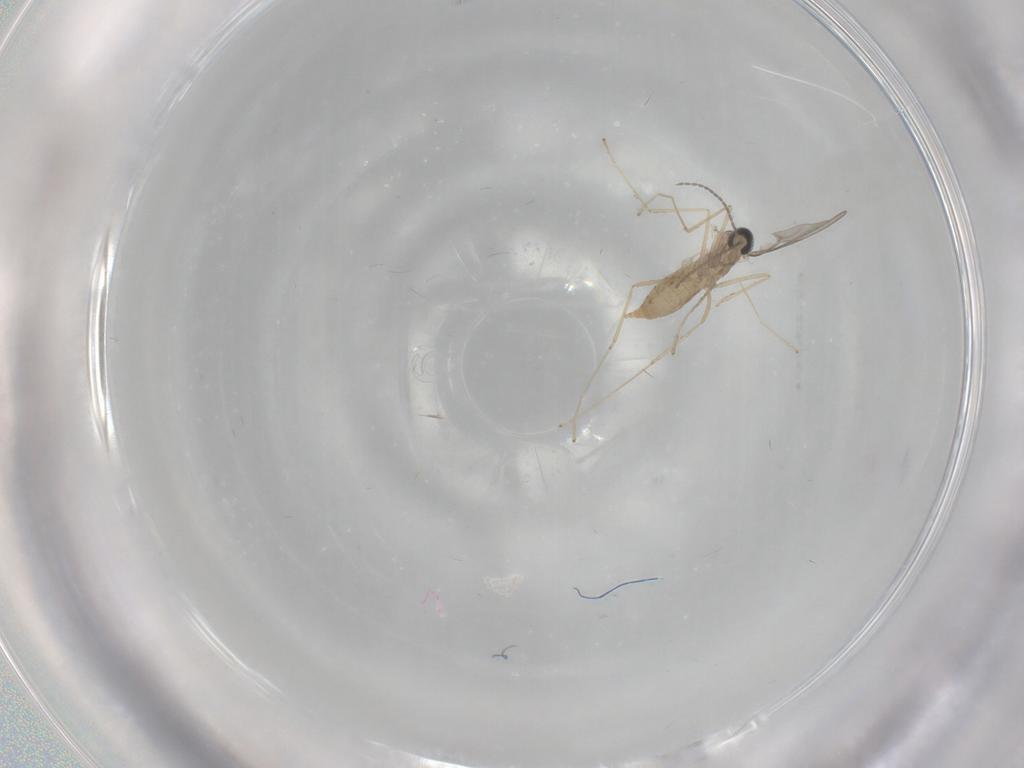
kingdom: Animalia
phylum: Arthropoda
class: Insecta
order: Diptera
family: Cecidomyiidae
